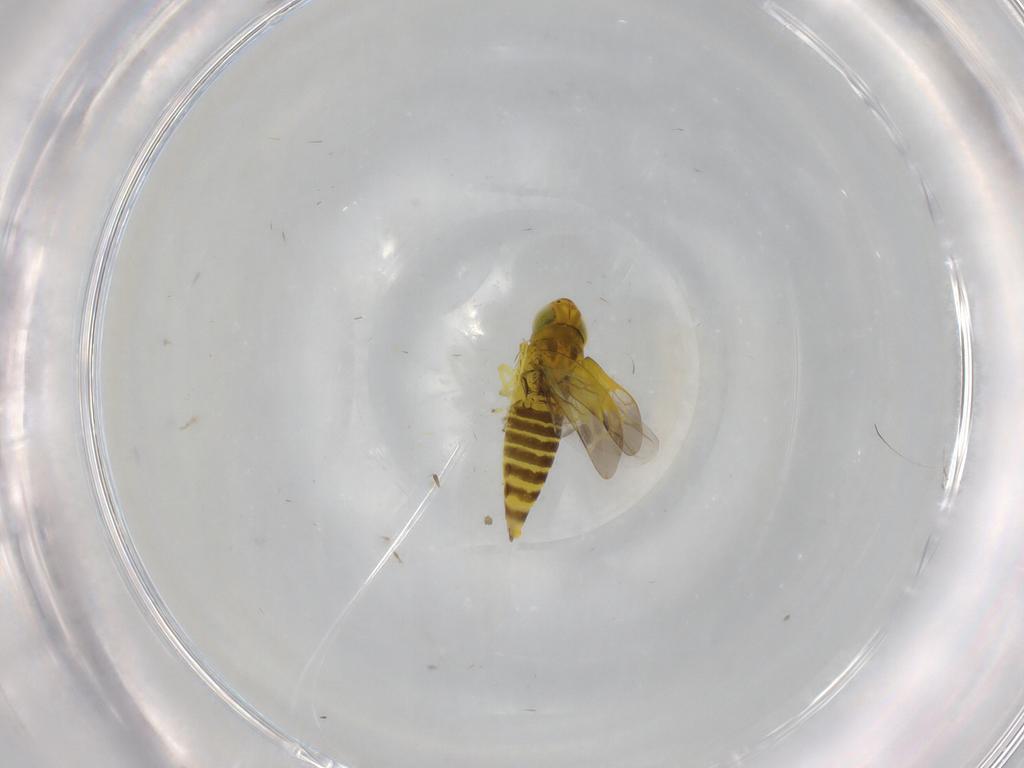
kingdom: Animalia
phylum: Arthropoda
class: Insecta
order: Hemiptera
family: Cicadellidae
